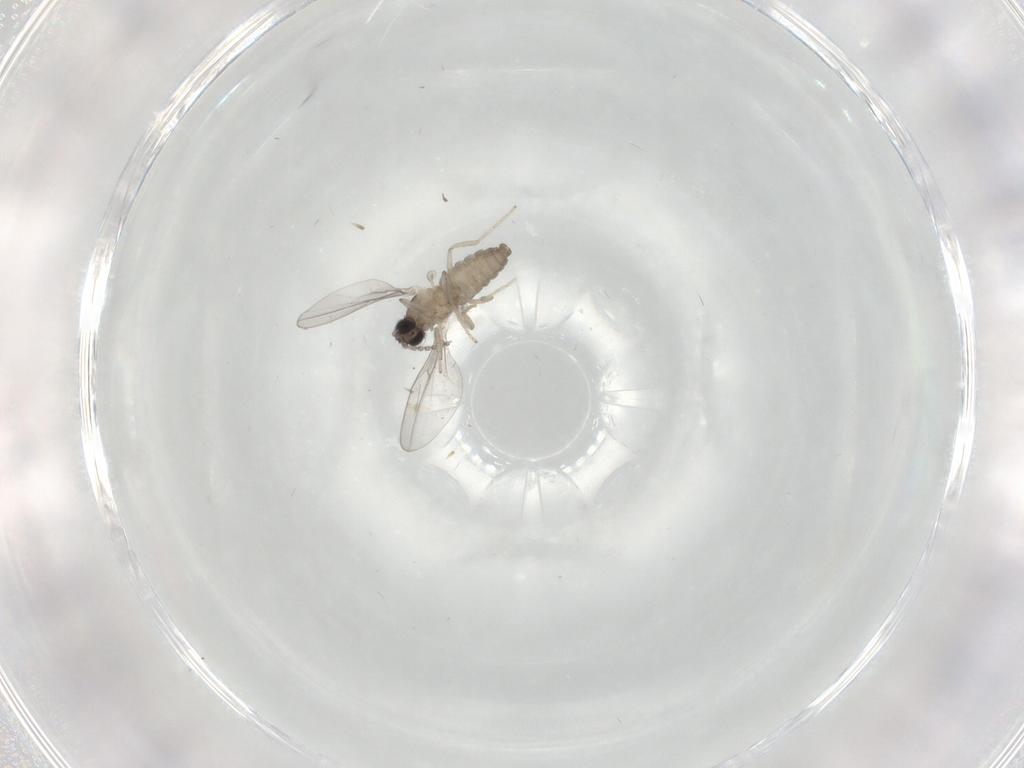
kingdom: Animalia
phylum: Arthropoda
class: Insecta
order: Diptera
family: Cecidomyiidae
